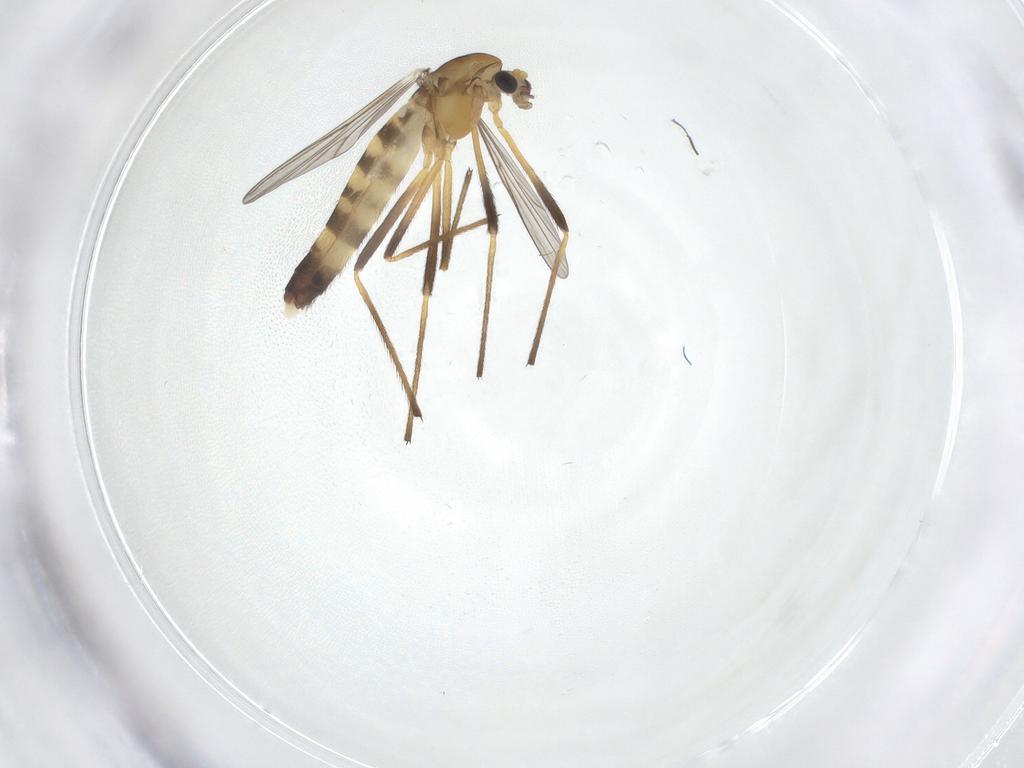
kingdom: Animalia
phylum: Arthropoda
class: Insecta
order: Diptera
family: Chironomidae
